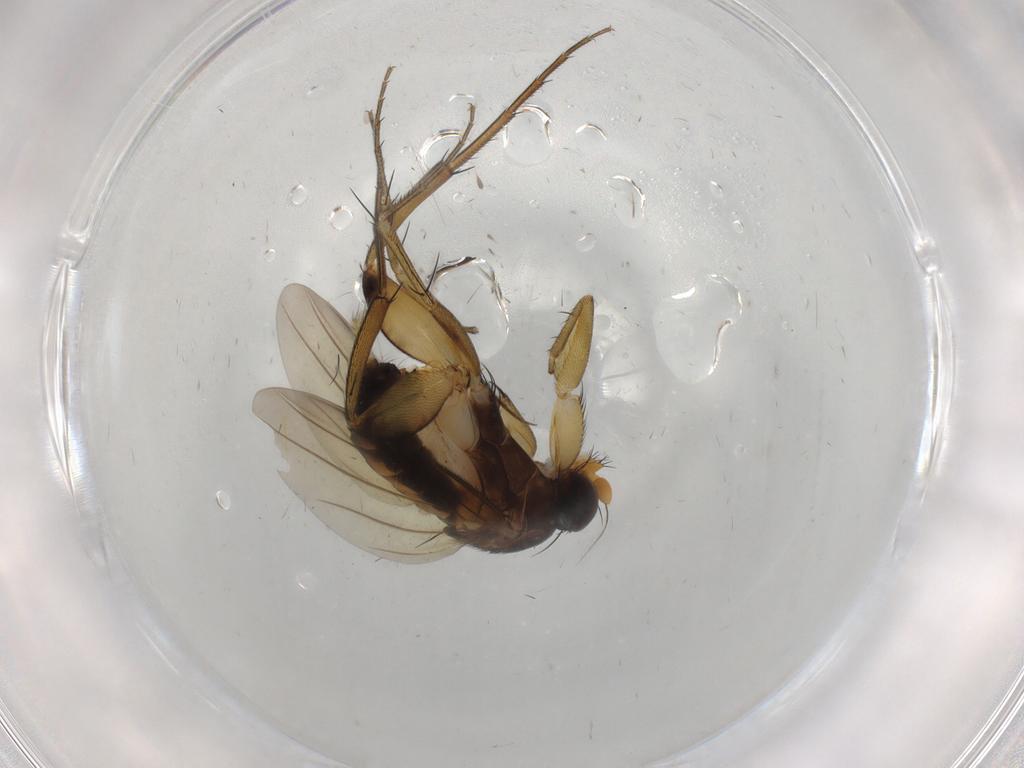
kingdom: Animalia
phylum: Arthropoda
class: Insecta
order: Diptera
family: Phoridae
